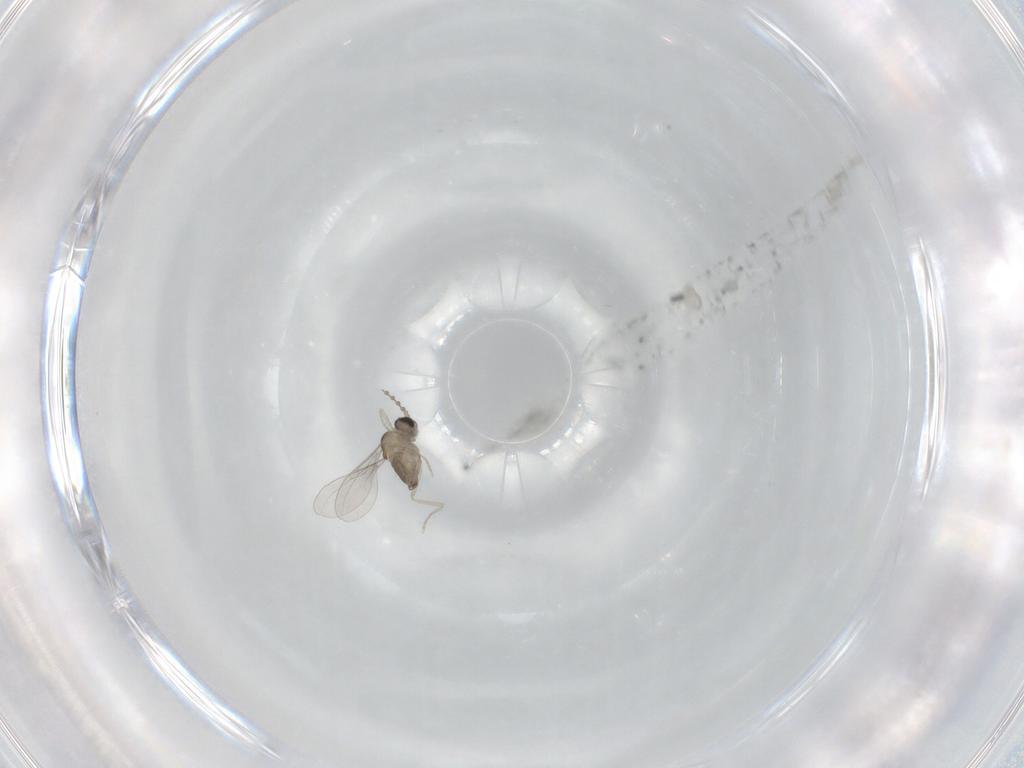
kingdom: Animalia
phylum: Arthropoda
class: Insecta
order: Diptera
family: Cecidomyiidae
